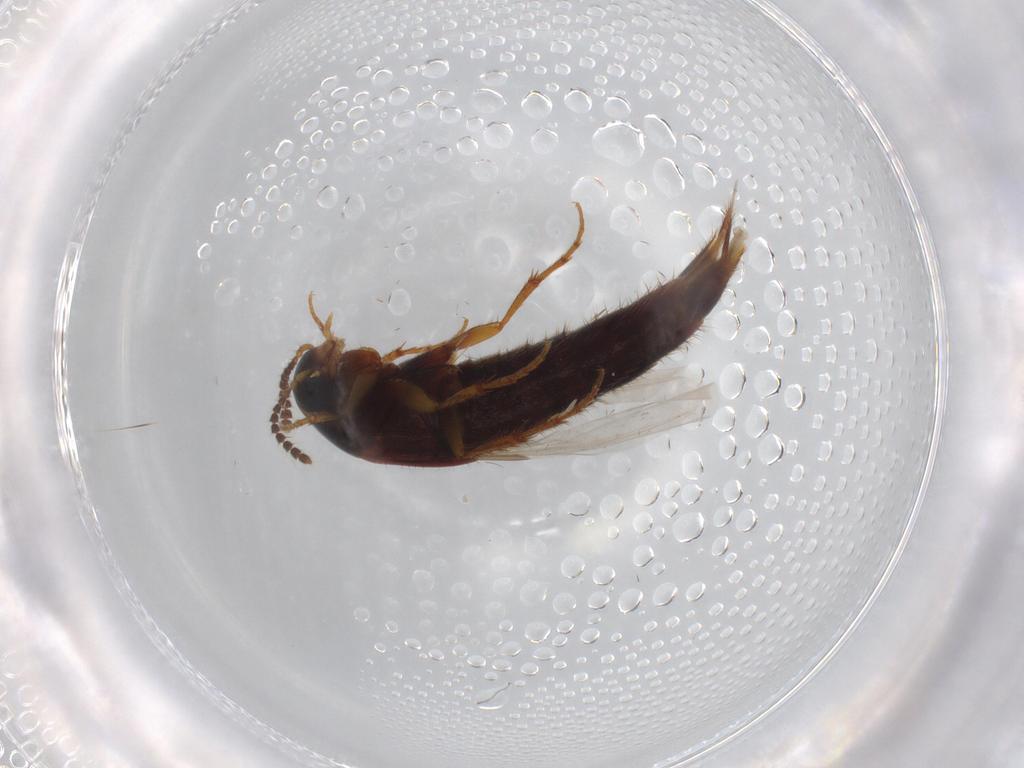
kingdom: Animalia
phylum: Arthropoda
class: Insecta
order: Coleoptera
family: Staphylinidae
